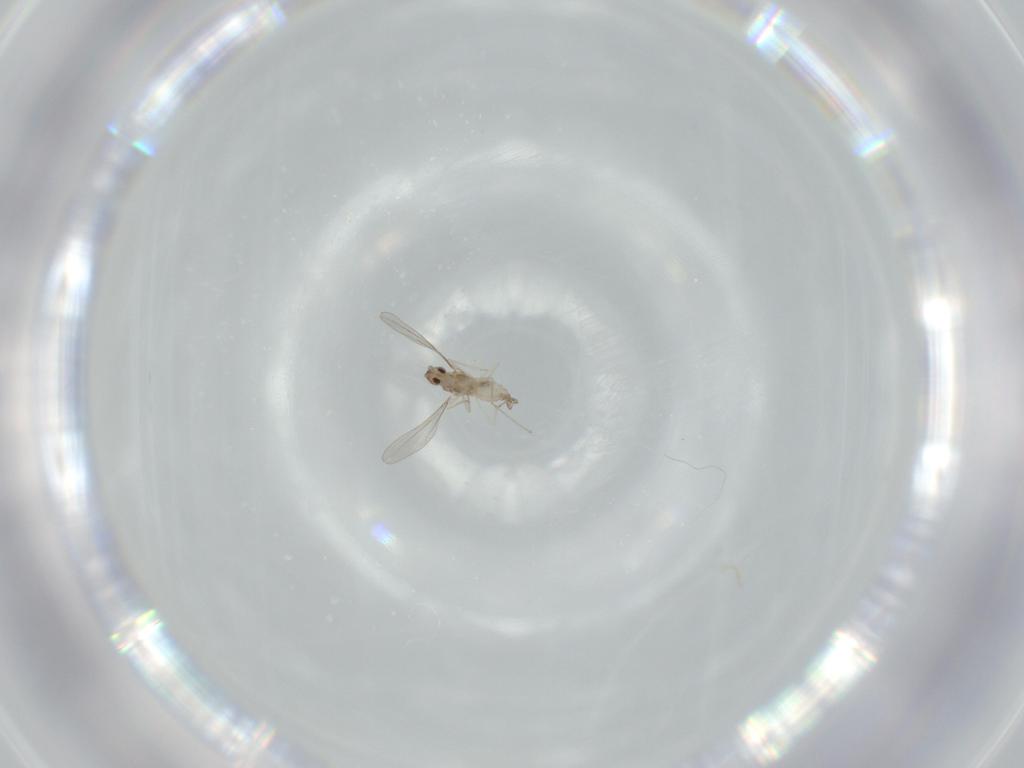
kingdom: Animalia
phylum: Arthropoda
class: Insecta
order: Diptera
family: Cecidomyiidae
